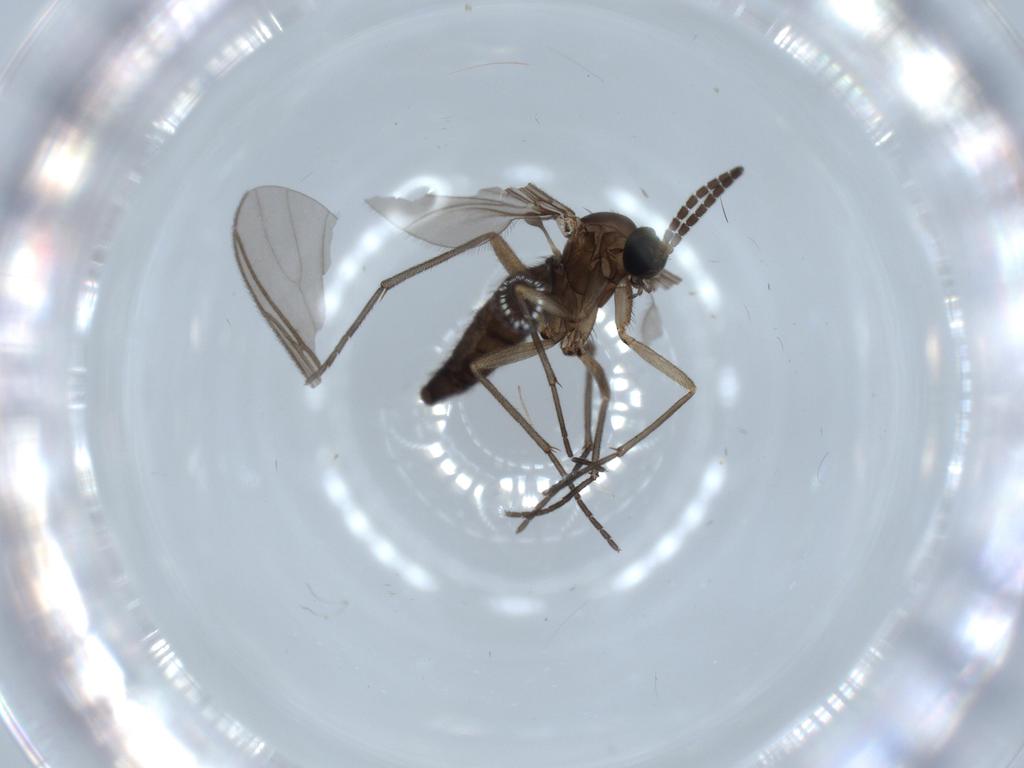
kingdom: Animalia
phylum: Arthropoda
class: Insecta
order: Diptera
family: Sciaridae
